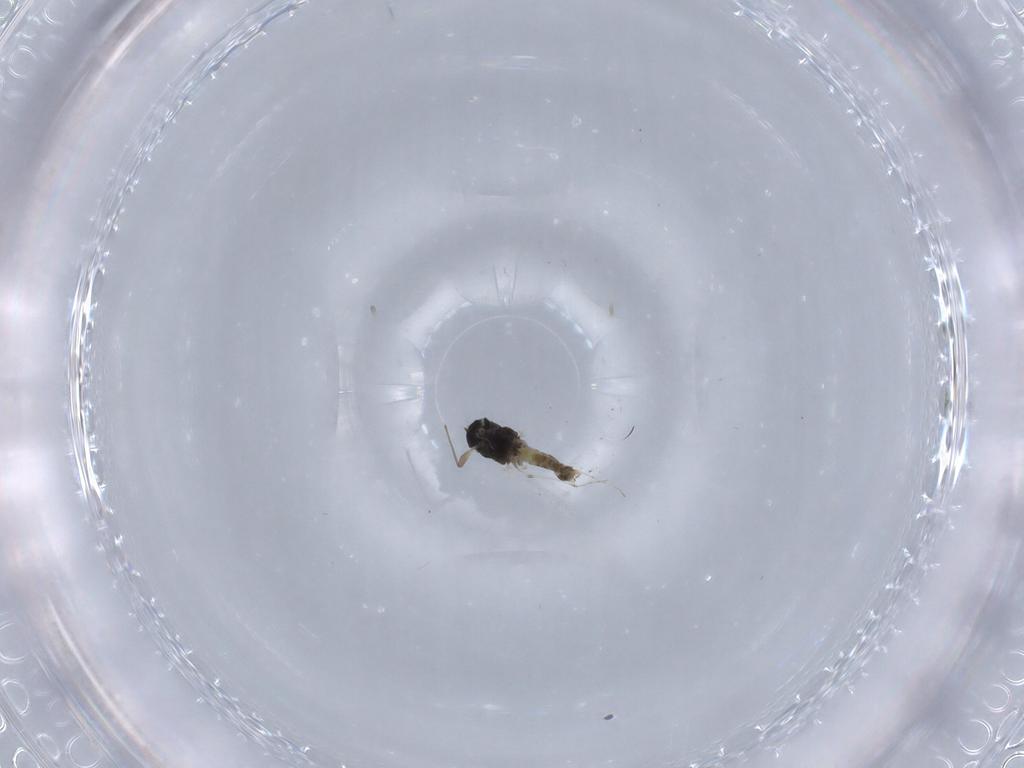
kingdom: Animalia
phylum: Arthropoda
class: Insecta
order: Diptera
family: Chironomidae
